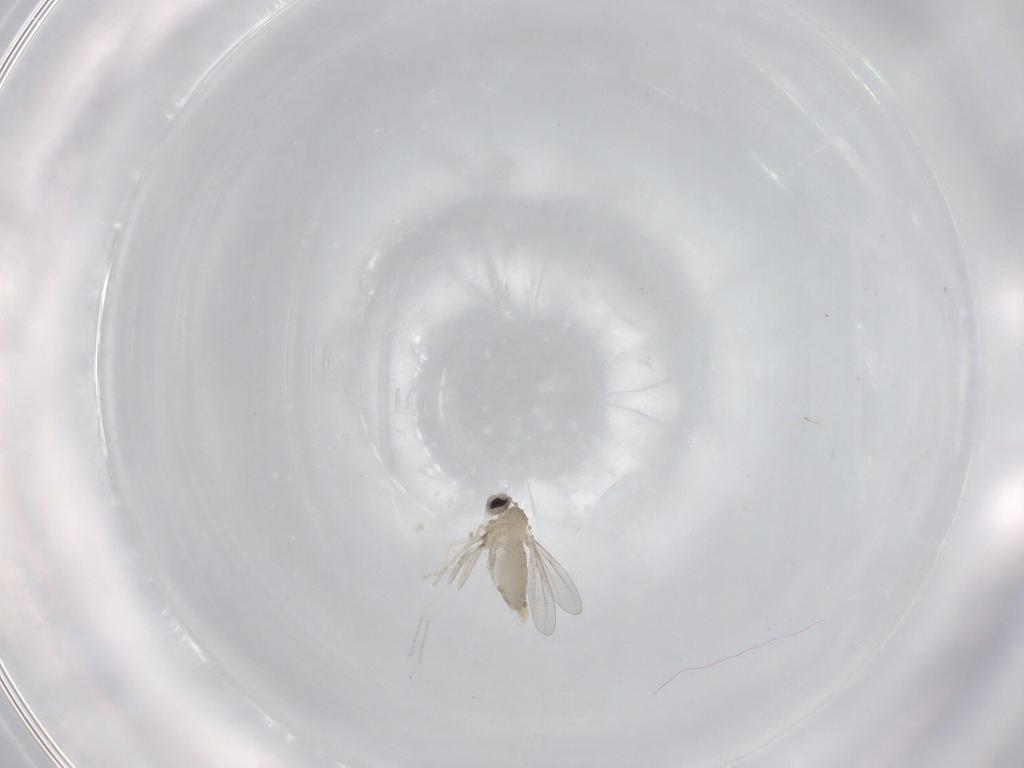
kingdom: Animalia
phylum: Arthropoda
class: Insecta
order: Diptera
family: Cecidomyiidae
